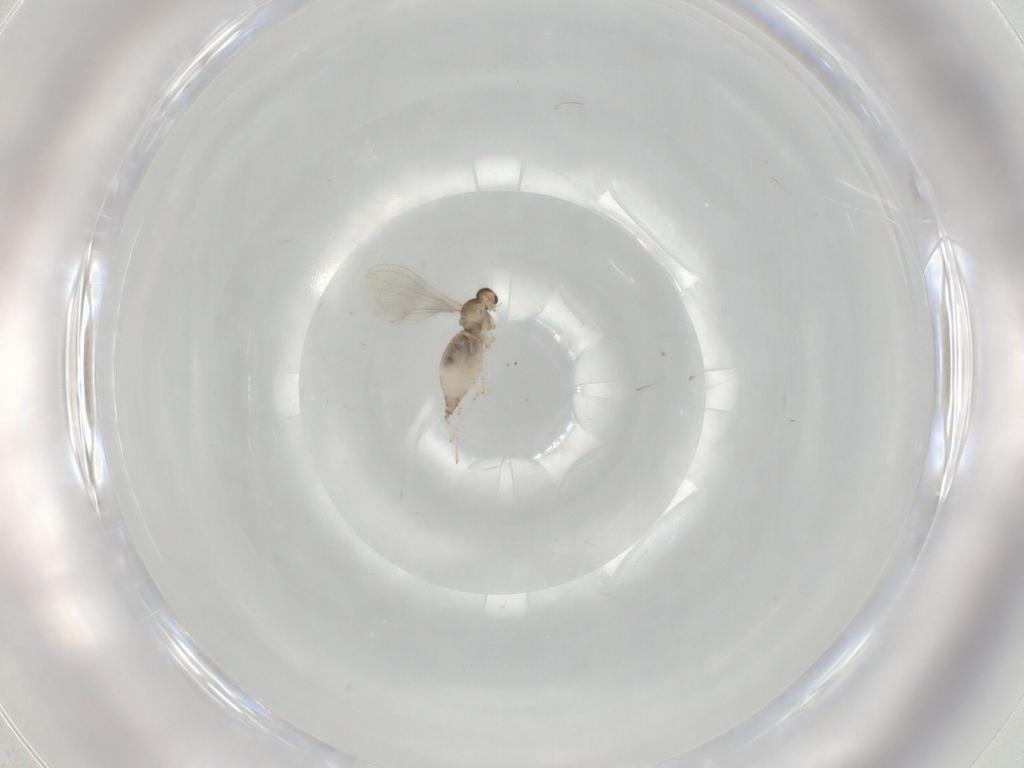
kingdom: Animalia
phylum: Arthropoda
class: Insecta
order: Diptera
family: Cecidomyiidae
